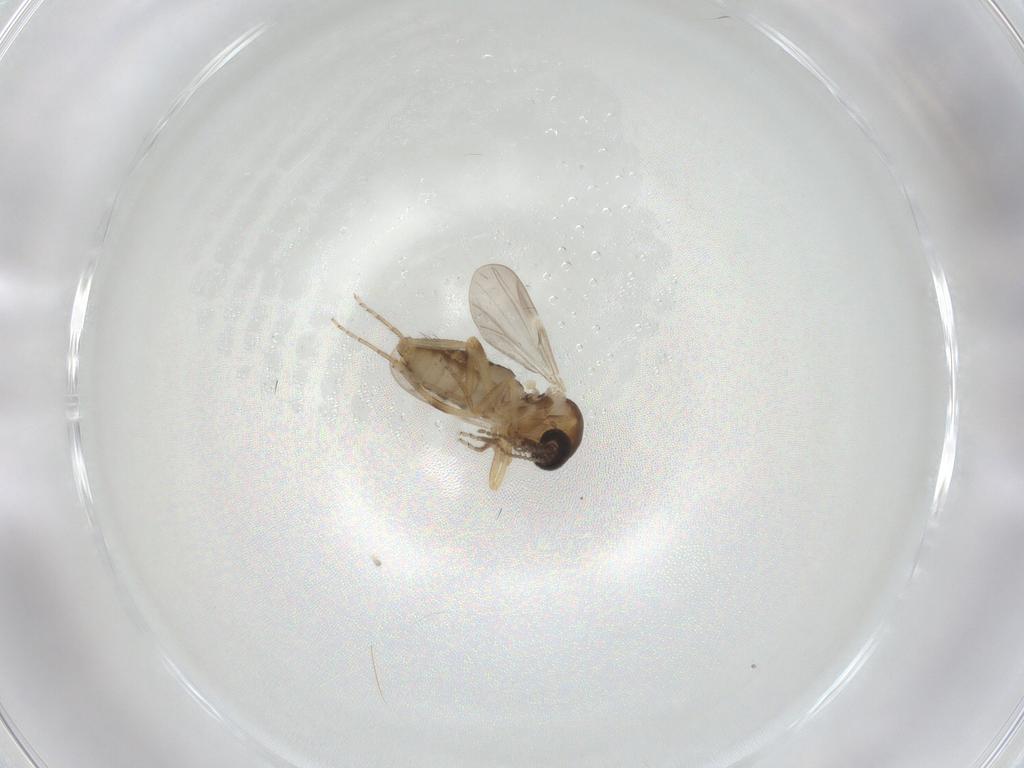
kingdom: Animalia
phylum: Arthropoda
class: Insecta
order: Diptera
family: Ceratopogonidae
